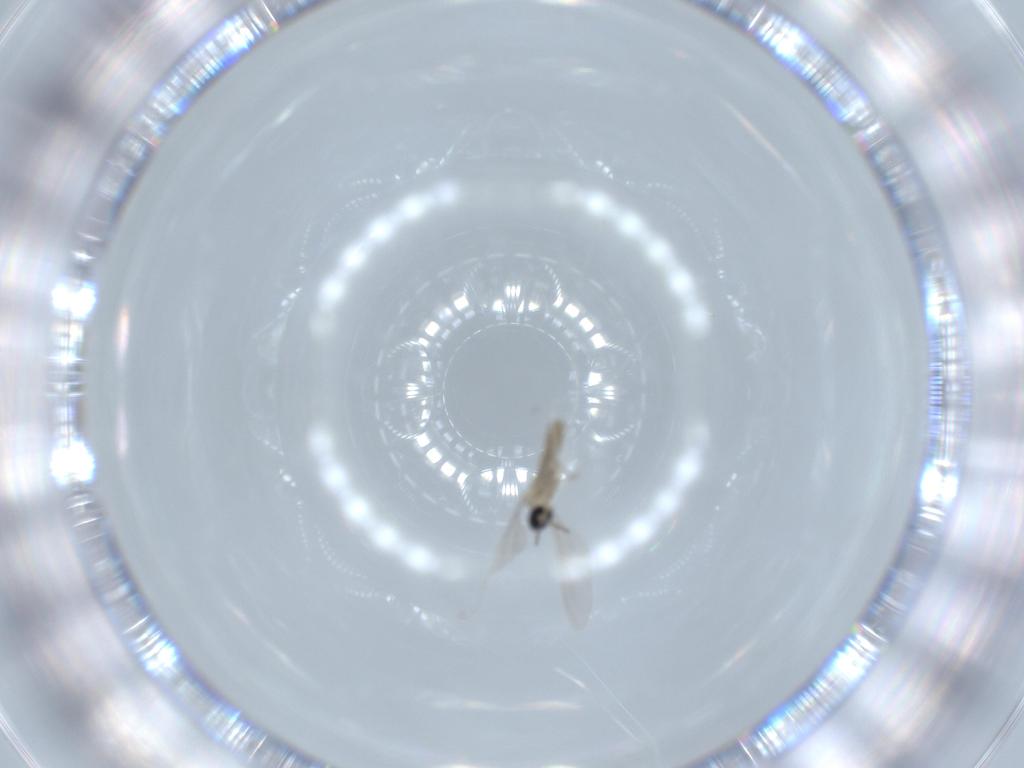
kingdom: Animalia
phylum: Arthropoda
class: Insecta
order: Diptera
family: Cecidomyiidae
